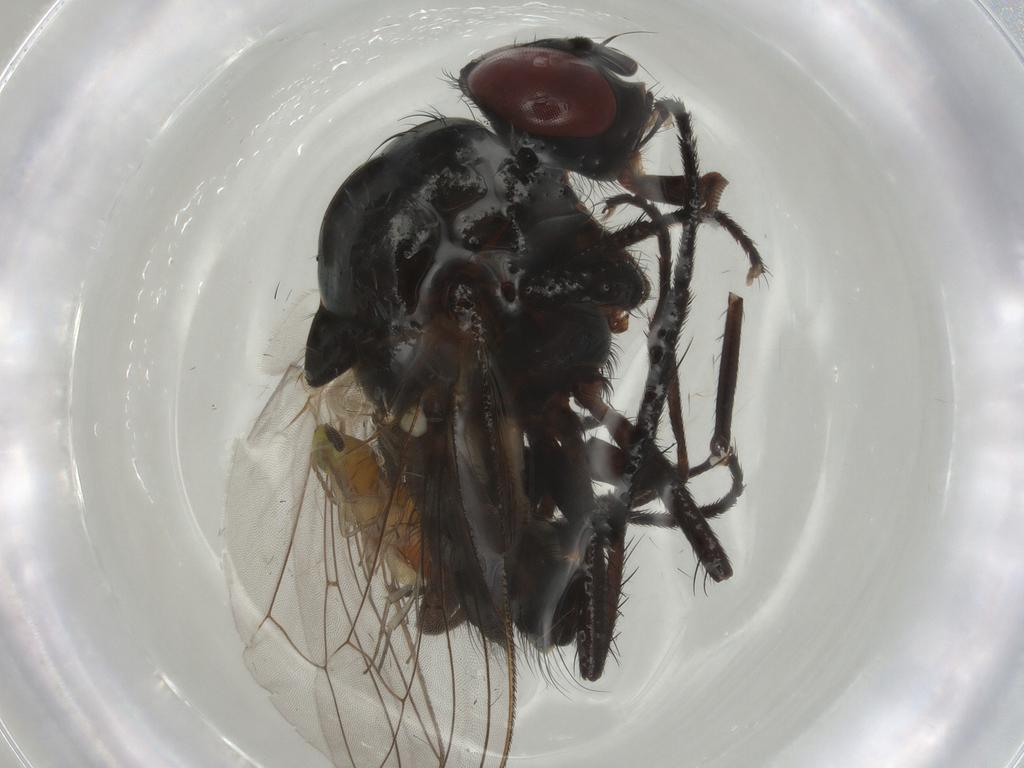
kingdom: Animalia
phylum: Arthropoda
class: Insecta
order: Diptera
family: Anthomyiidae
